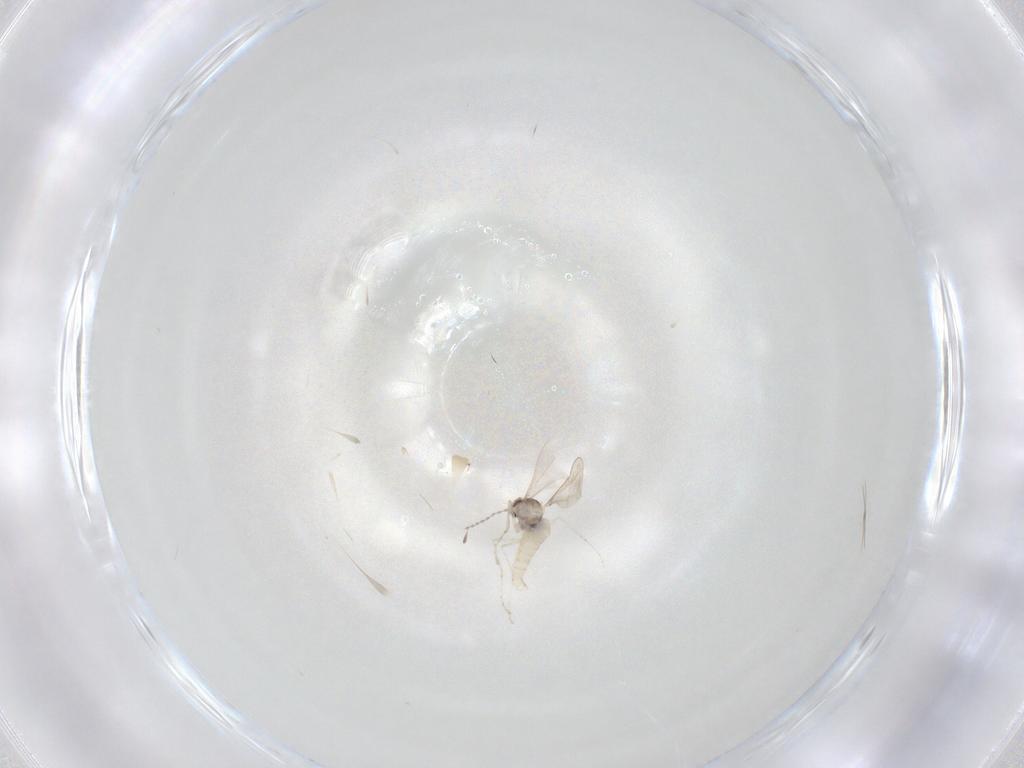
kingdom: Animalia
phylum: Arthropoda
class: Insecta
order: Diptera
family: Cecidomyiidae
